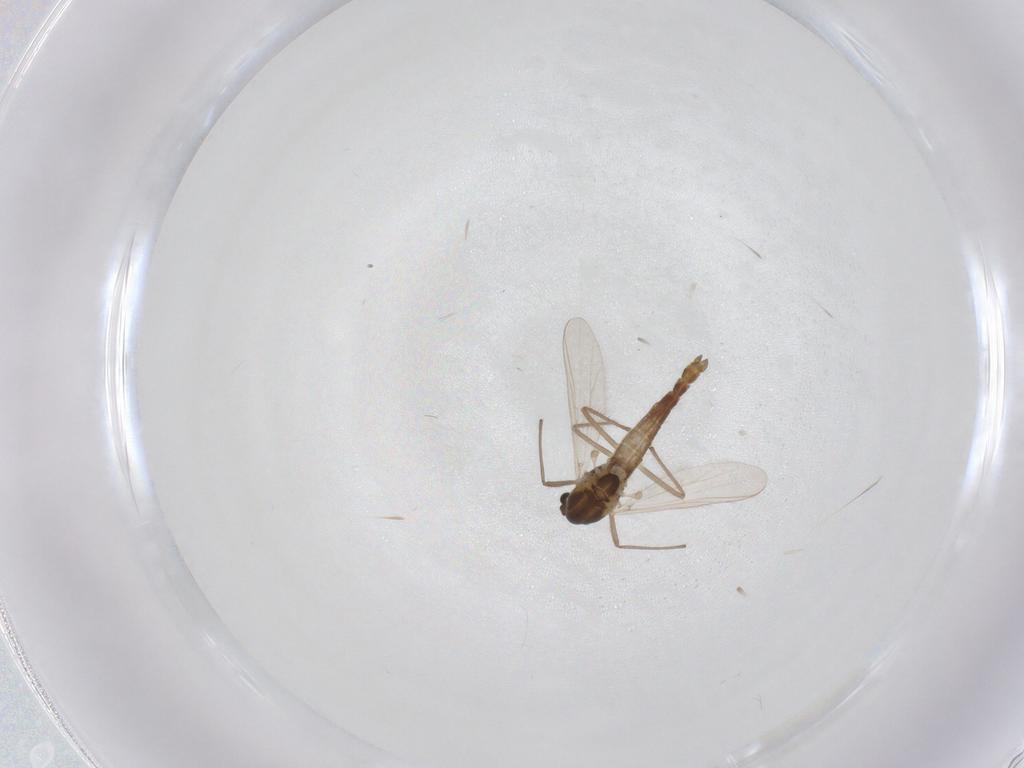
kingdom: Animalia
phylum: Arthropoda
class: Insecta
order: Diptera
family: Chironomidae
